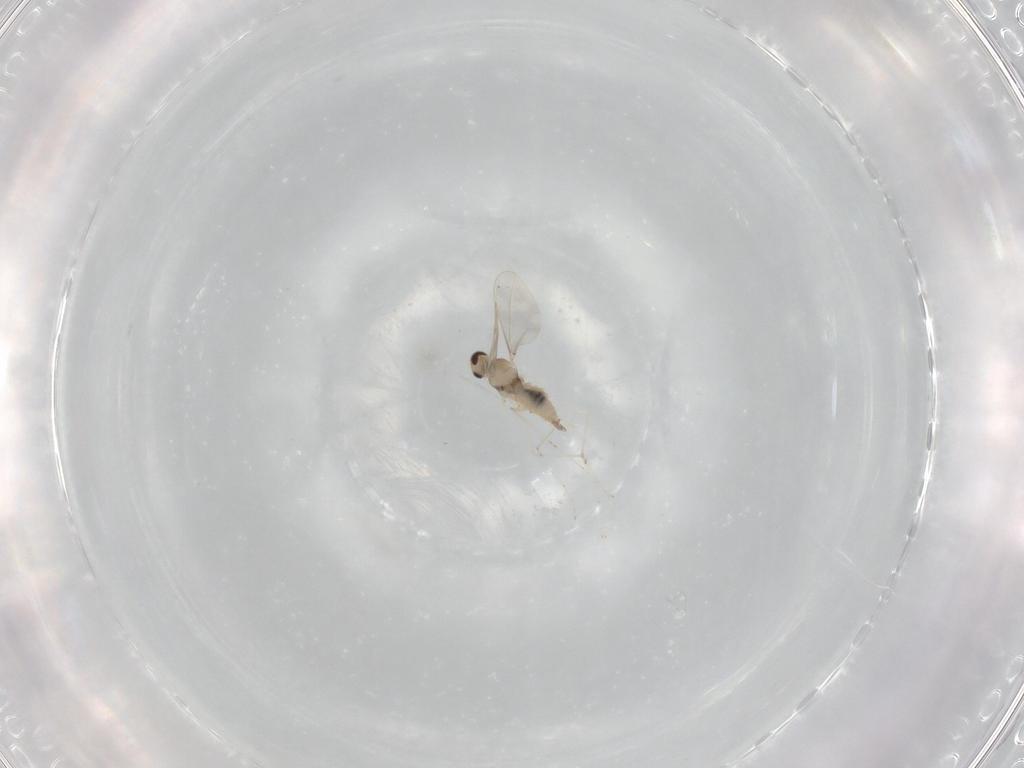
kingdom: Animalia
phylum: Arthropoda
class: Insecta
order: Diptera
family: Cecidomyiidae
